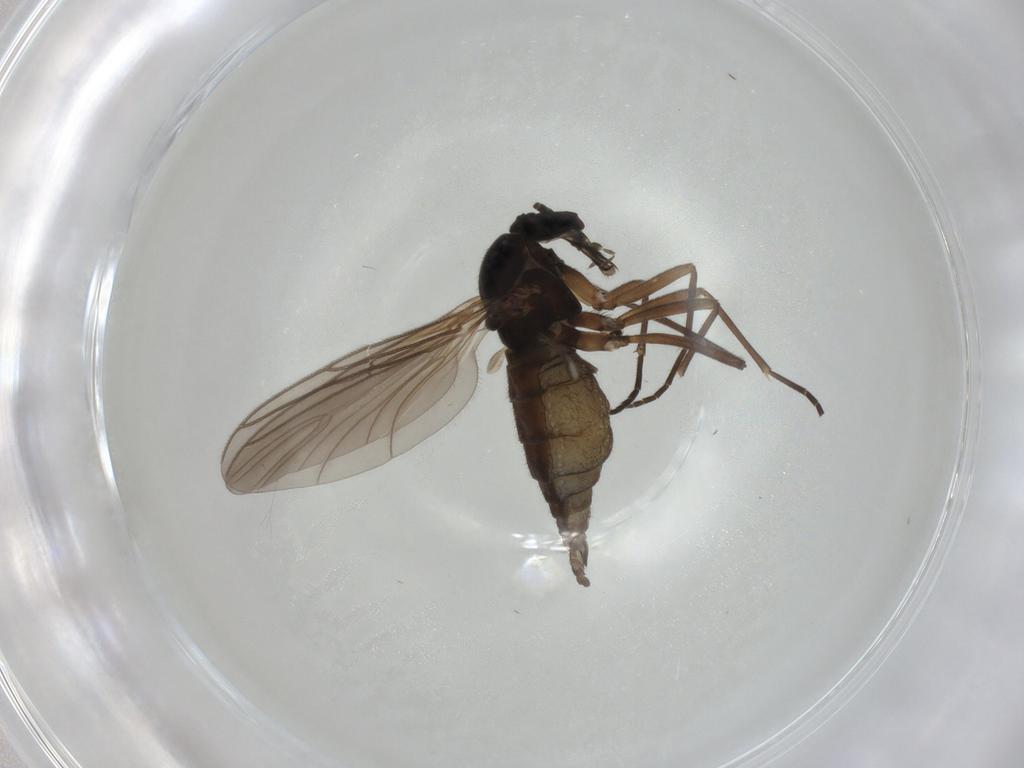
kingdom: Animalia
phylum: Arthropoda
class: Insecta
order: Diptera
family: Sciaridae
